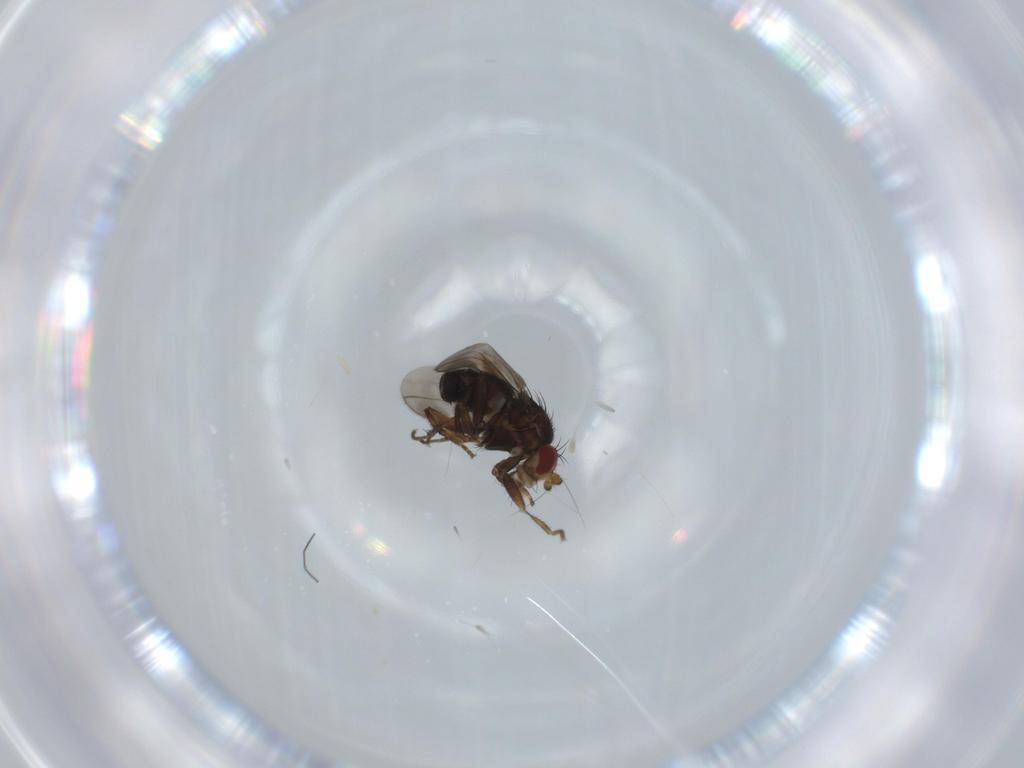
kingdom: Animalia
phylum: Arthropoda
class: Insecta
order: Diptera
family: Sphaeroceridae
